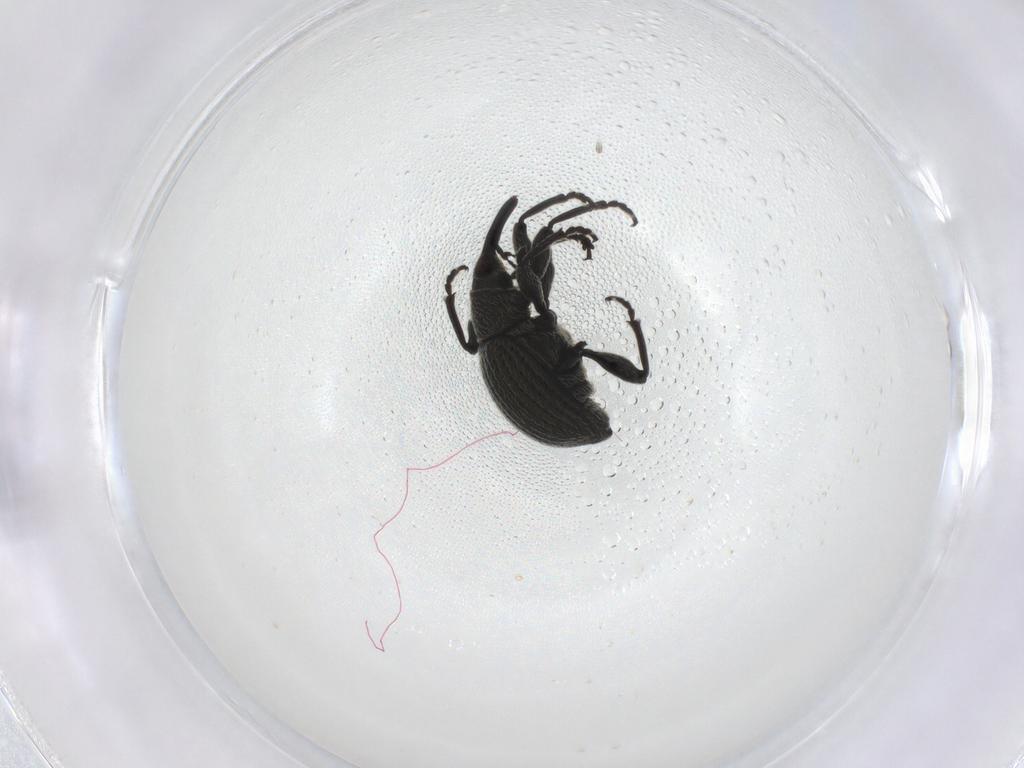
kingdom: Animalia
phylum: Arthropoda
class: Insecta
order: Coleoptera
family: Brentidae
